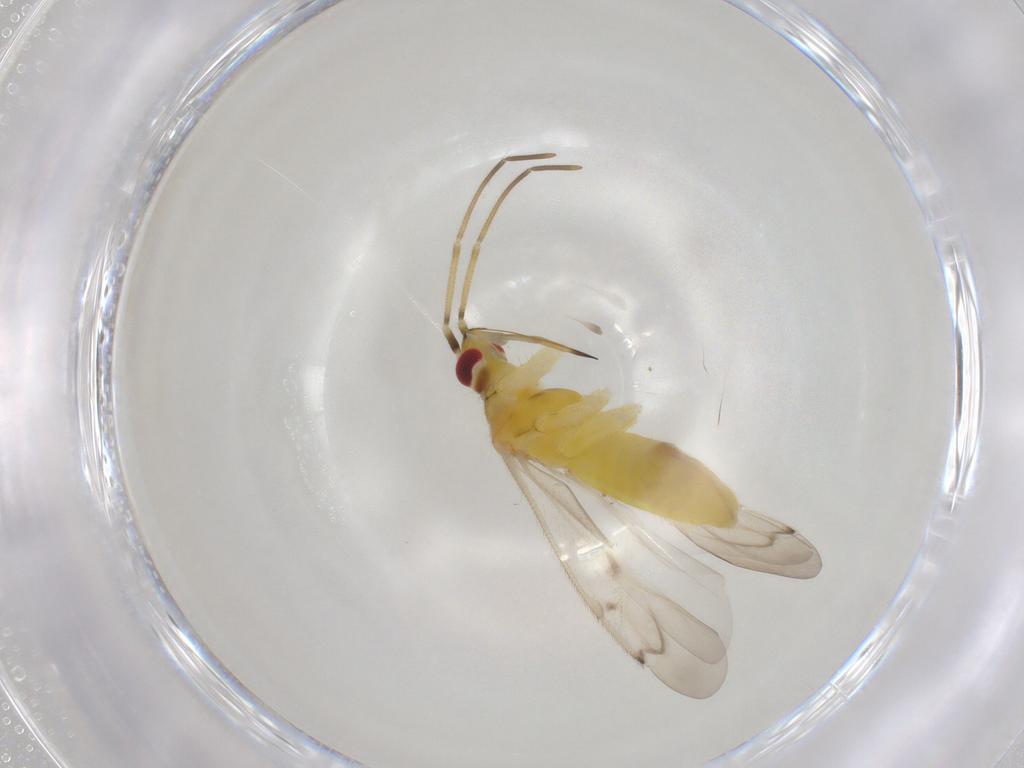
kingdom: Animalia
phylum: Arthropoda
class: Insecta
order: Hemiptera
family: Miridae
